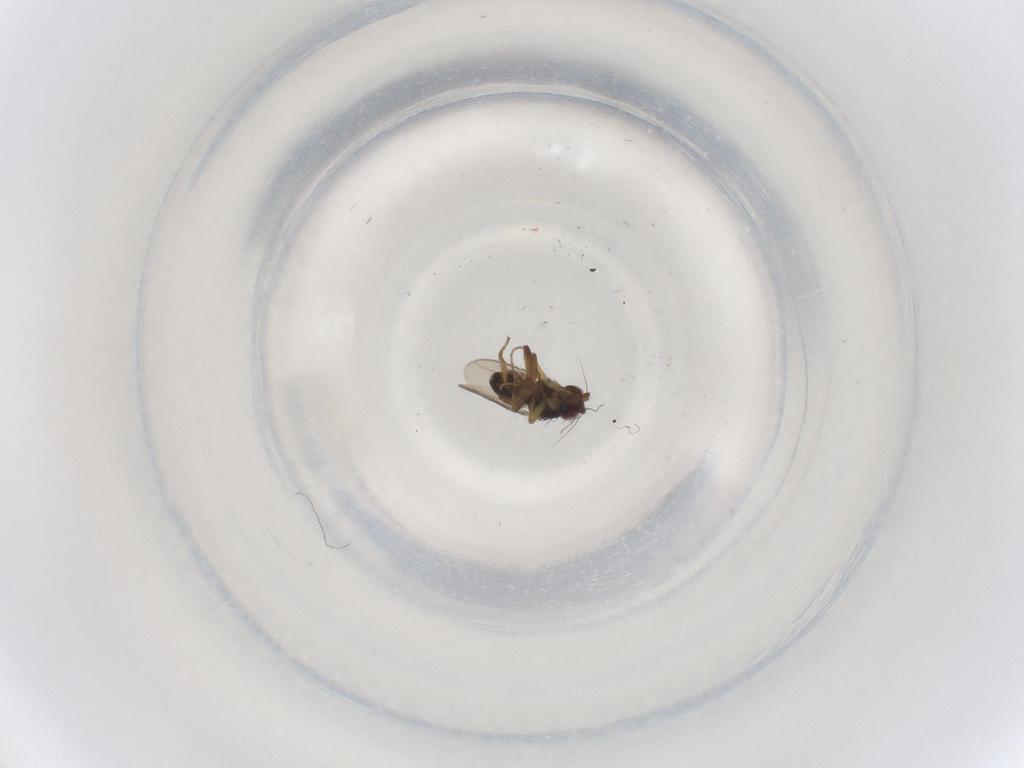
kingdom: Animalia
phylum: Arthropoda
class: Insecta
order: Diptera
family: Sphaeroceridae
